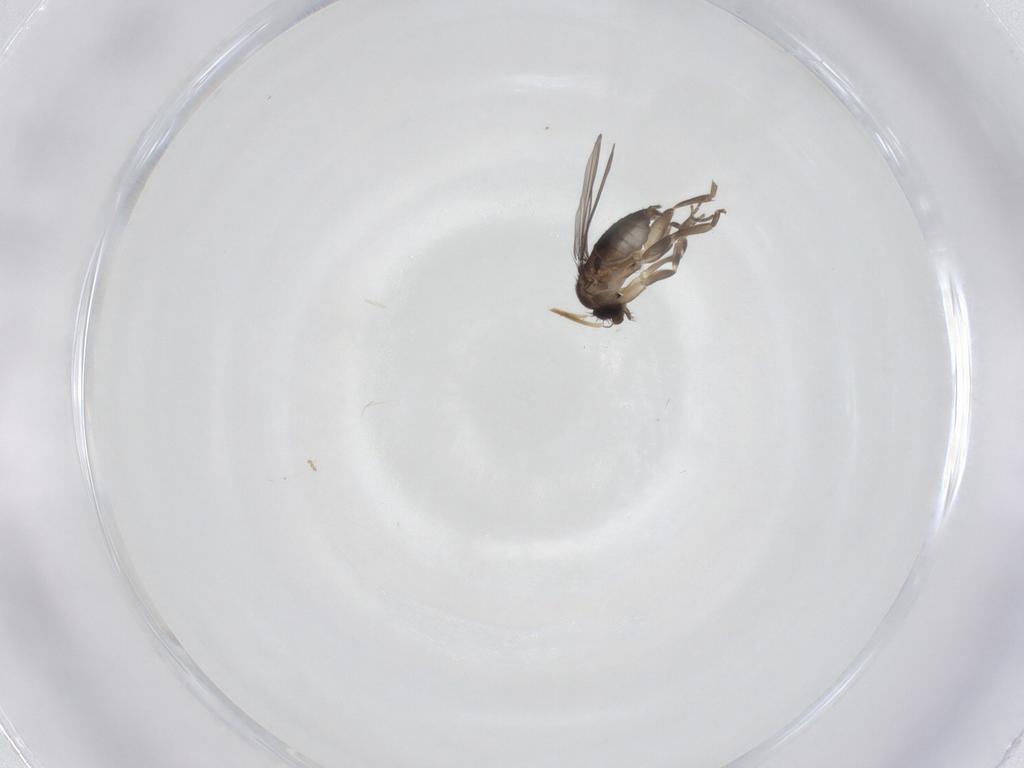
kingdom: Animalia
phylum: Arthropoda
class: Insecta
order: Diptera
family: Cecidomyiidae
